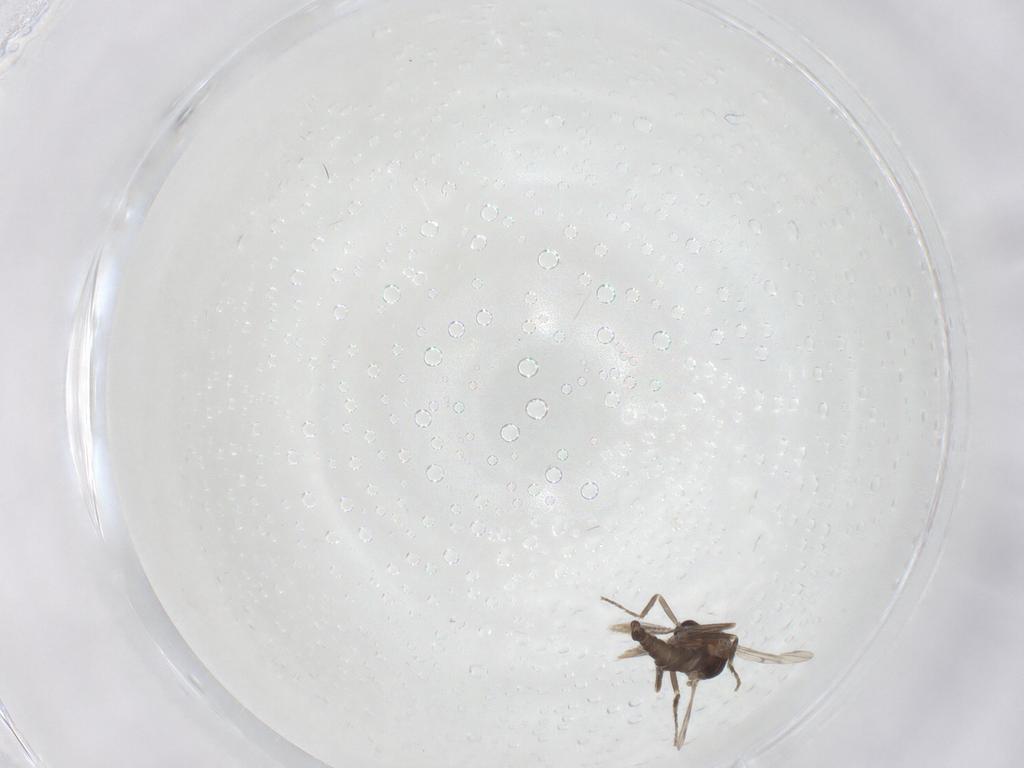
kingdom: Animalia
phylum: Arthropoda
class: Insecta
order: Diptera
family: Ceratopogonidae
